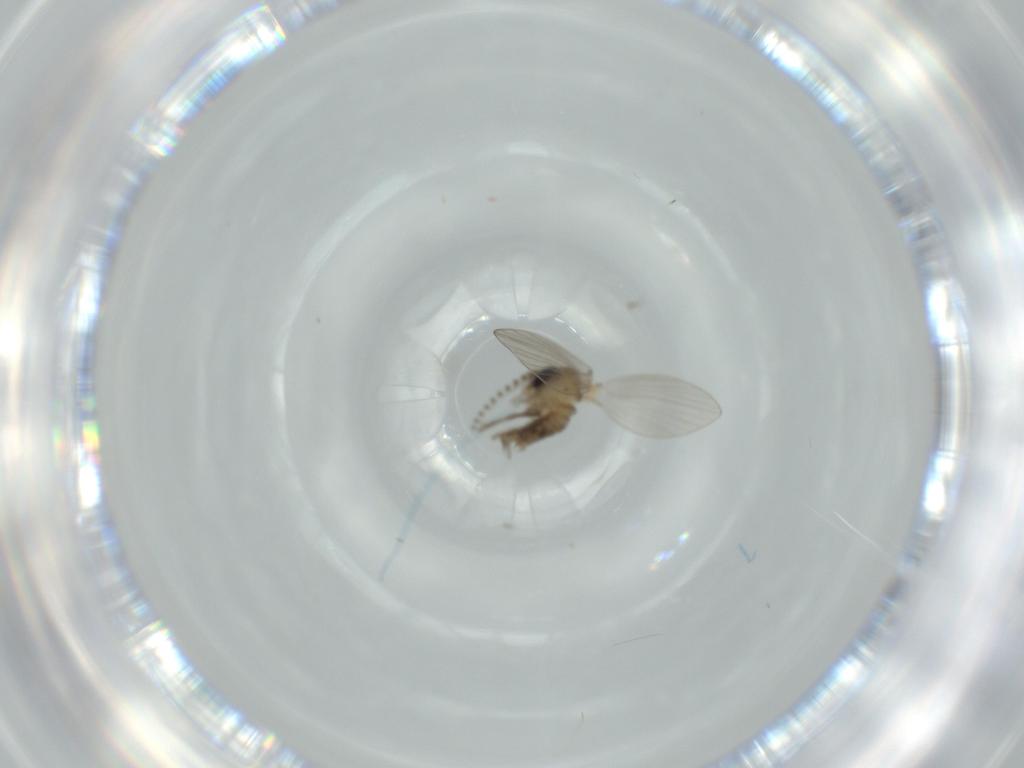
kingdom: Animalia
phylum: Arthropoda
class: Insecta
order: Diptera
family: Psychodidae
